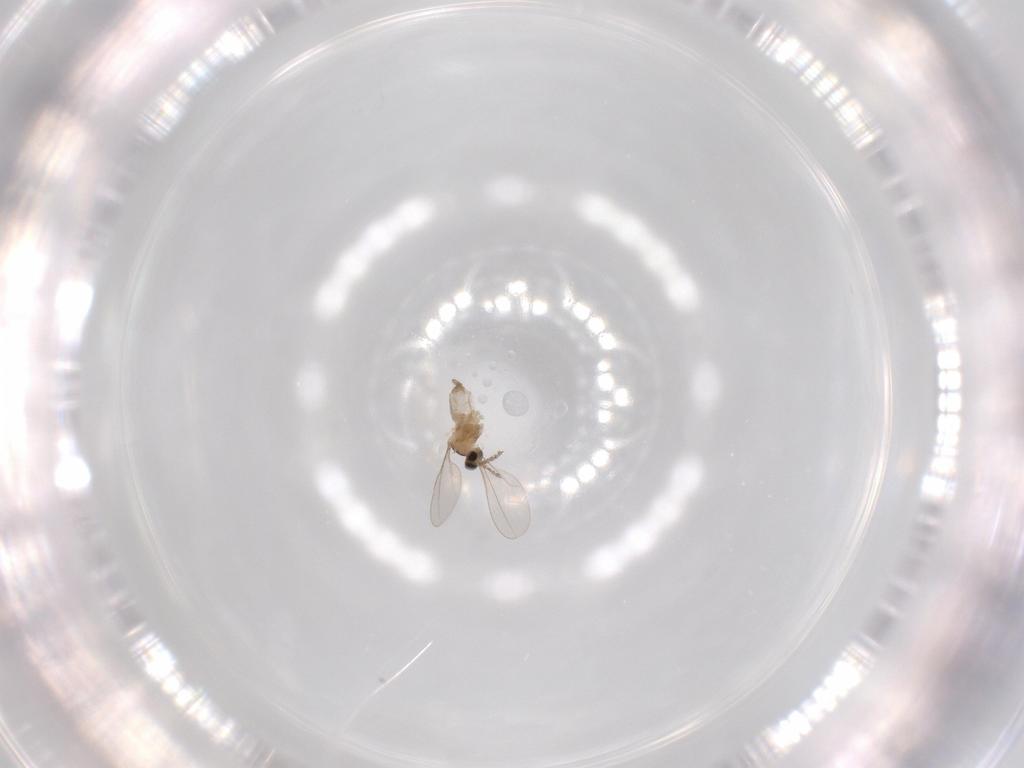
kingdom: Animalia
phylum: Arthropoda
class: Insecta
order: Diptera
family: Cecidomyiidae
